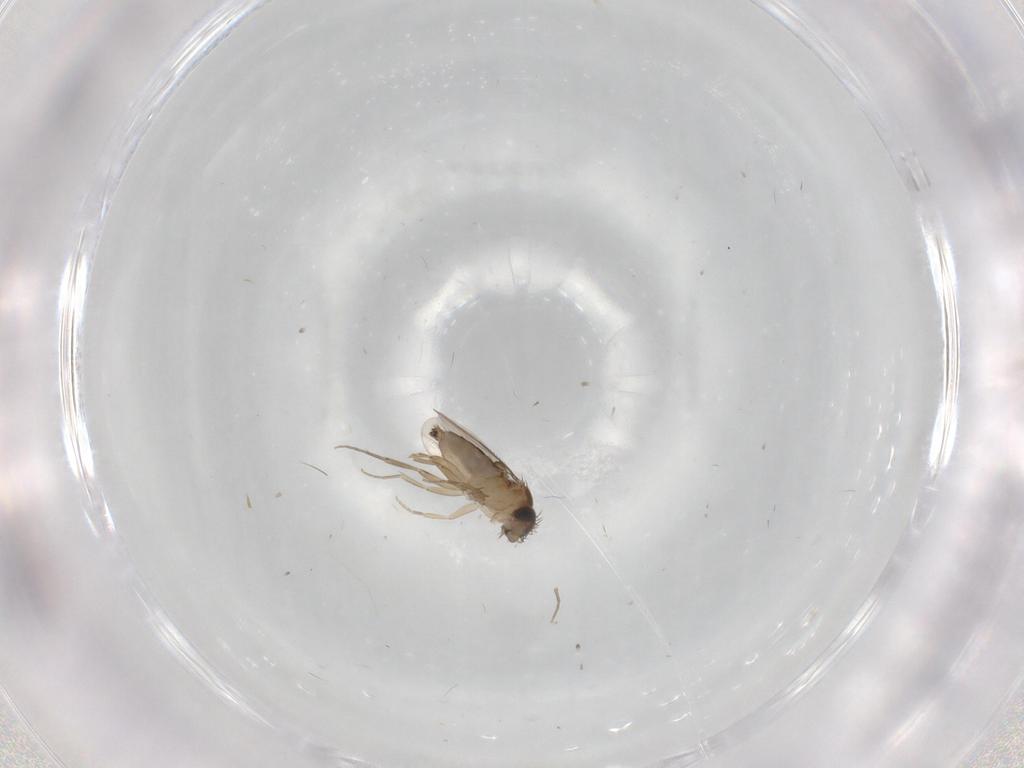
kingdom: Animalia
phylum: Arthropoda
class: Insecta
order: Diptera
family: Phoridae
